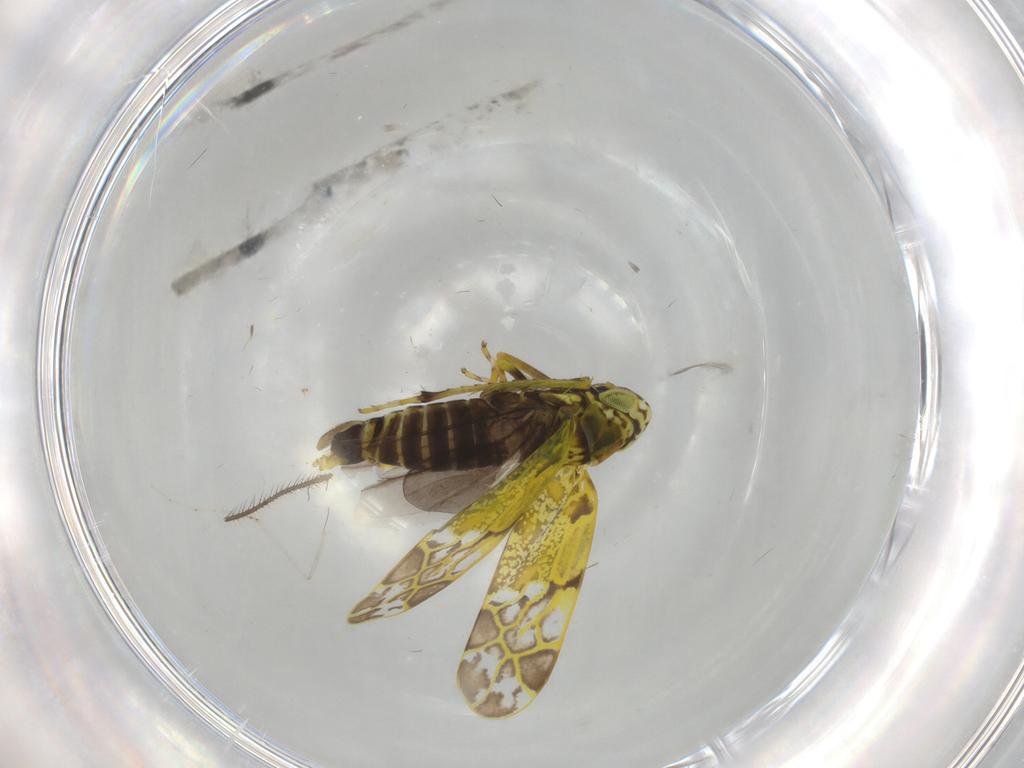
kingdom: Animalia
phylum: Arthropoda
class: Insecta
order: Hemiptera
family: Cicadellidae
